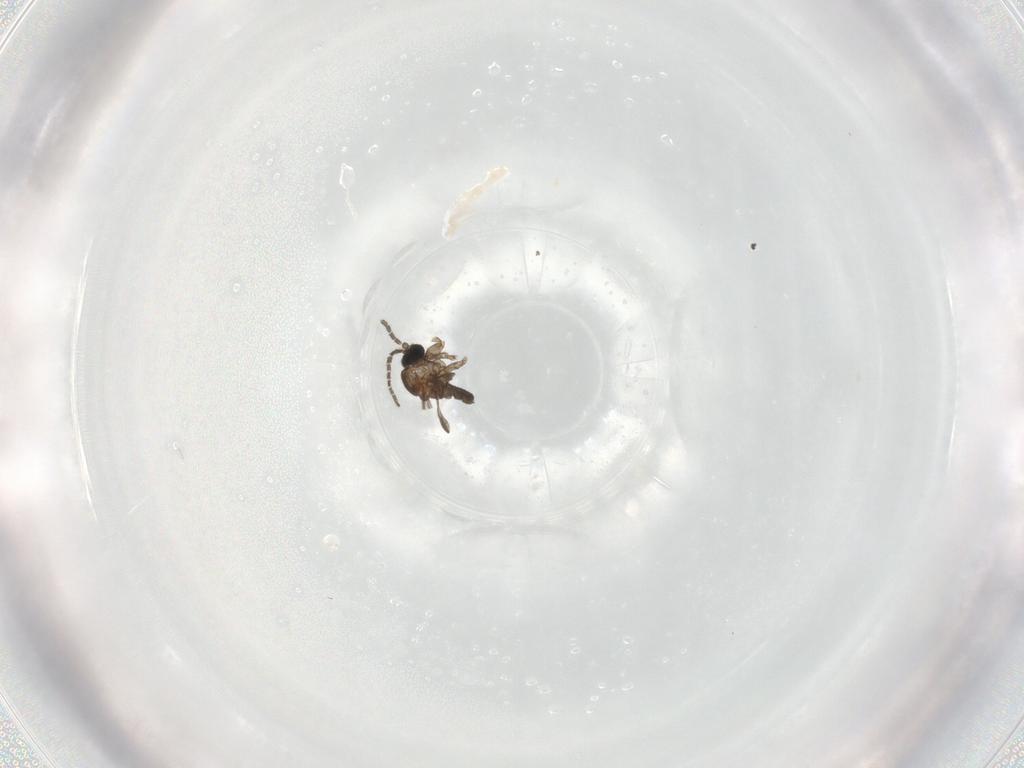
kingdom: Animalia
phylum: Arthropoda
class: Insecta
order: Diptera
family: Sciaridae
